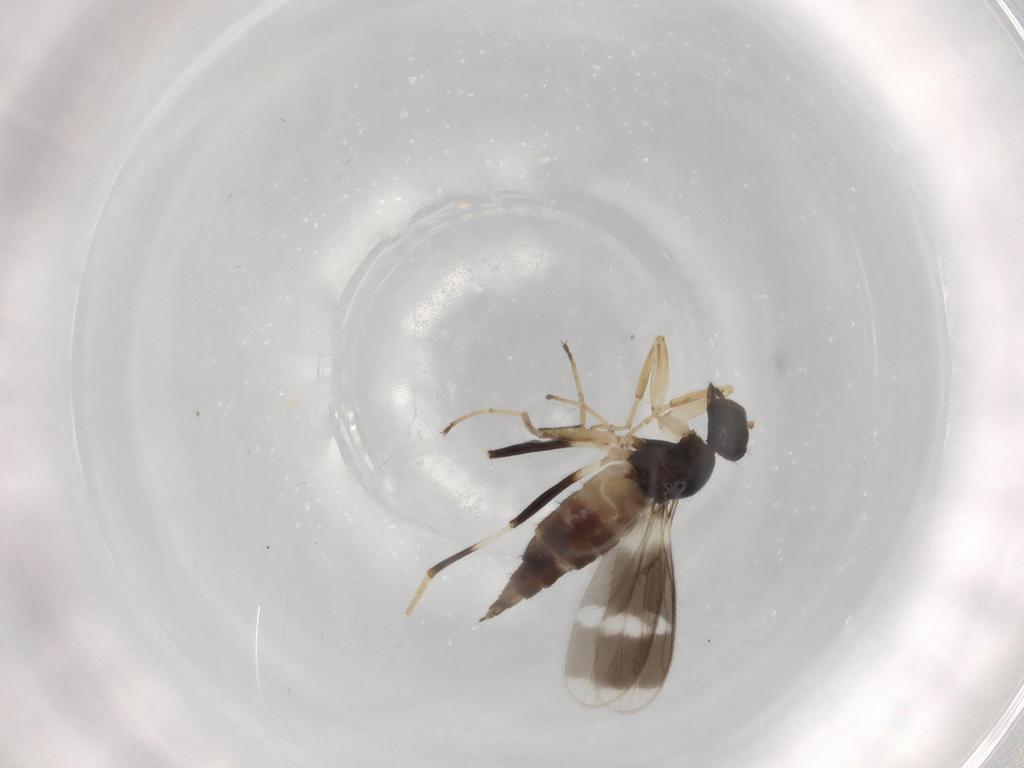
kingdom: Animalia
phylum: Arthropoda
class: Insecta
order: Diptera
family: Hybotidae
